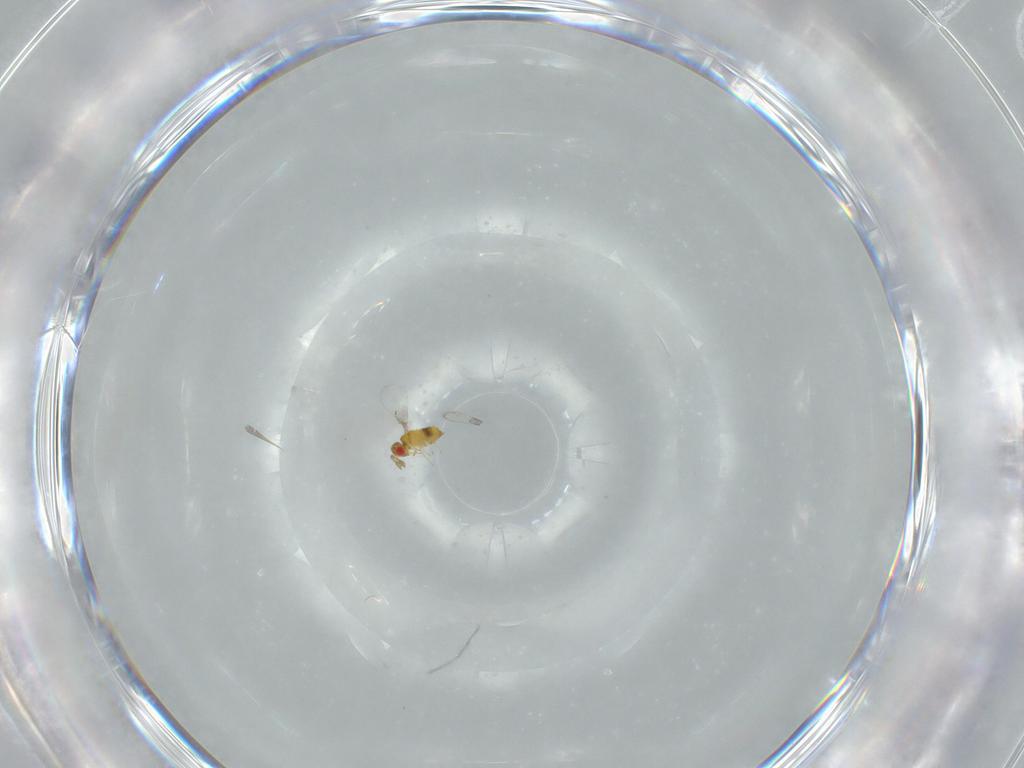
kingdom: Animalia
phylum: Arthropoda
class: Insecta
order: Hymenoptera
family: Trichogrammatidae
